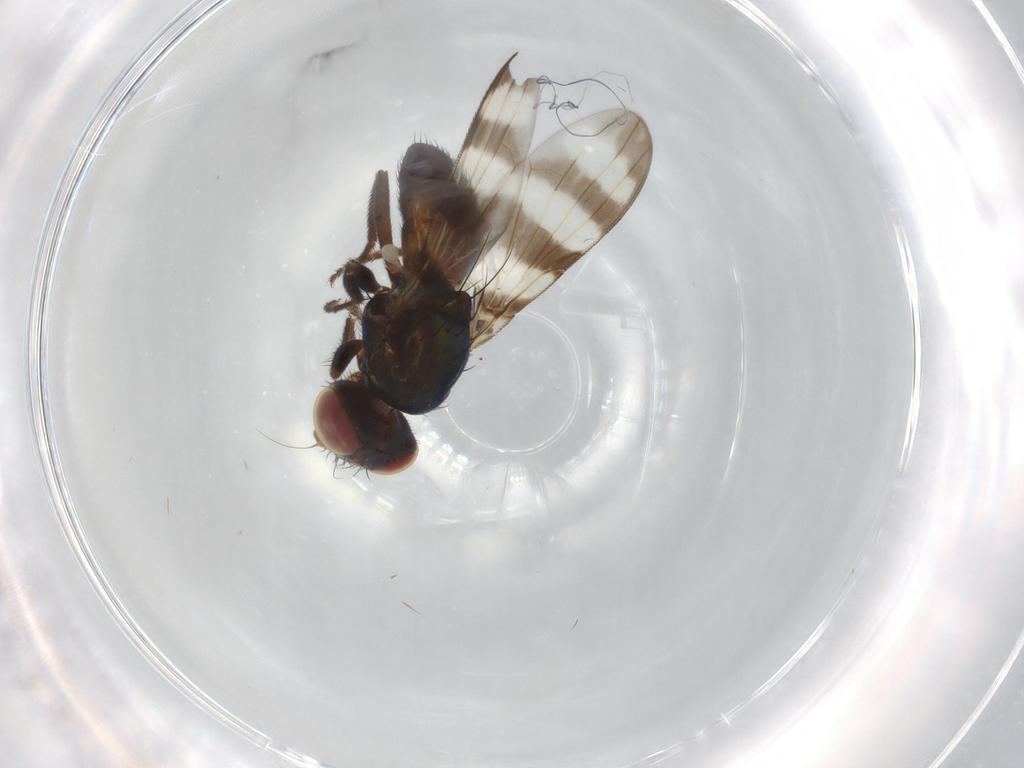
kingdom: Animalia
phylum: Arthropoda
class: Insecta
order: Diptera
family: Ulidiidae
